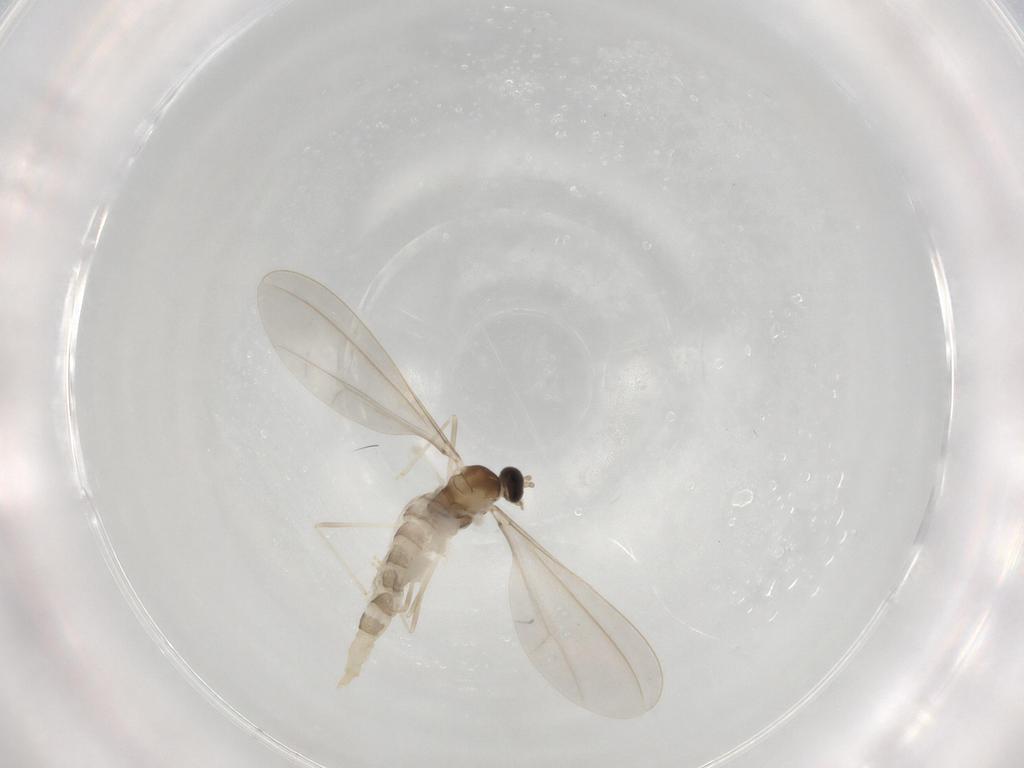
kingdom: Animalia
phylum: Arthropoda
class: Insecta
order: Diptera
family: Cecidomyiidae
